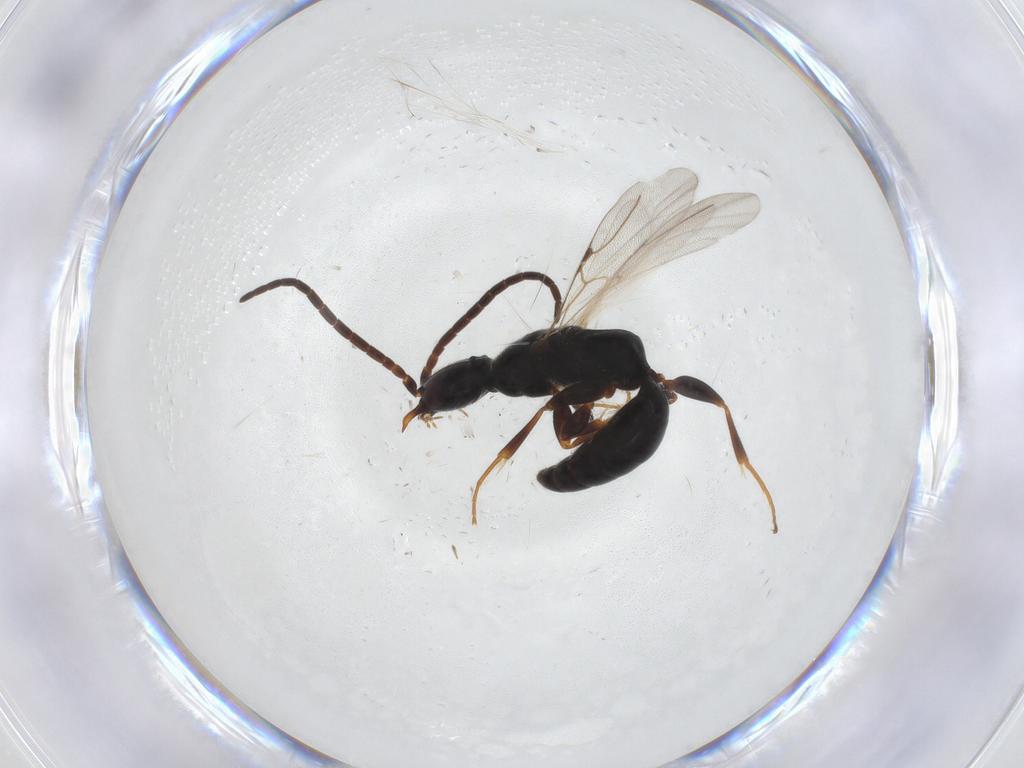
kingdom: Animalia
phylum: Arthropoda
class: Insecta
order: Hymenoptera
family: Bethylidae
